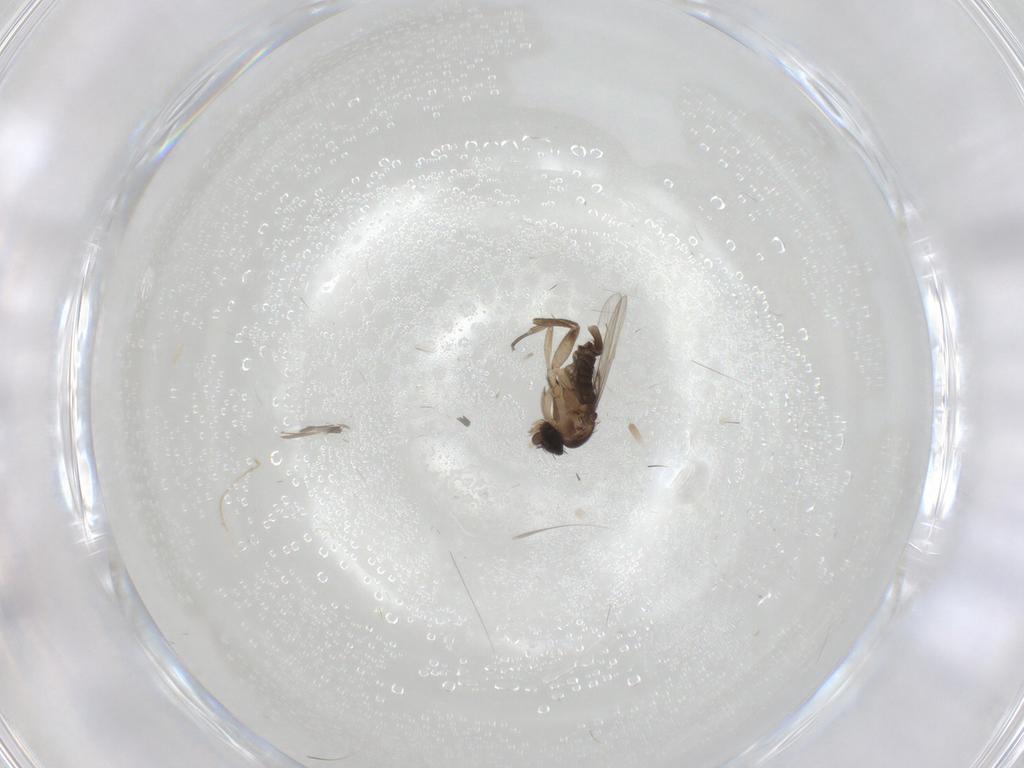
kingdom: Animalia
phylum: Arthropoda
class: Insecta
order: Diptera
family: Phoridae
